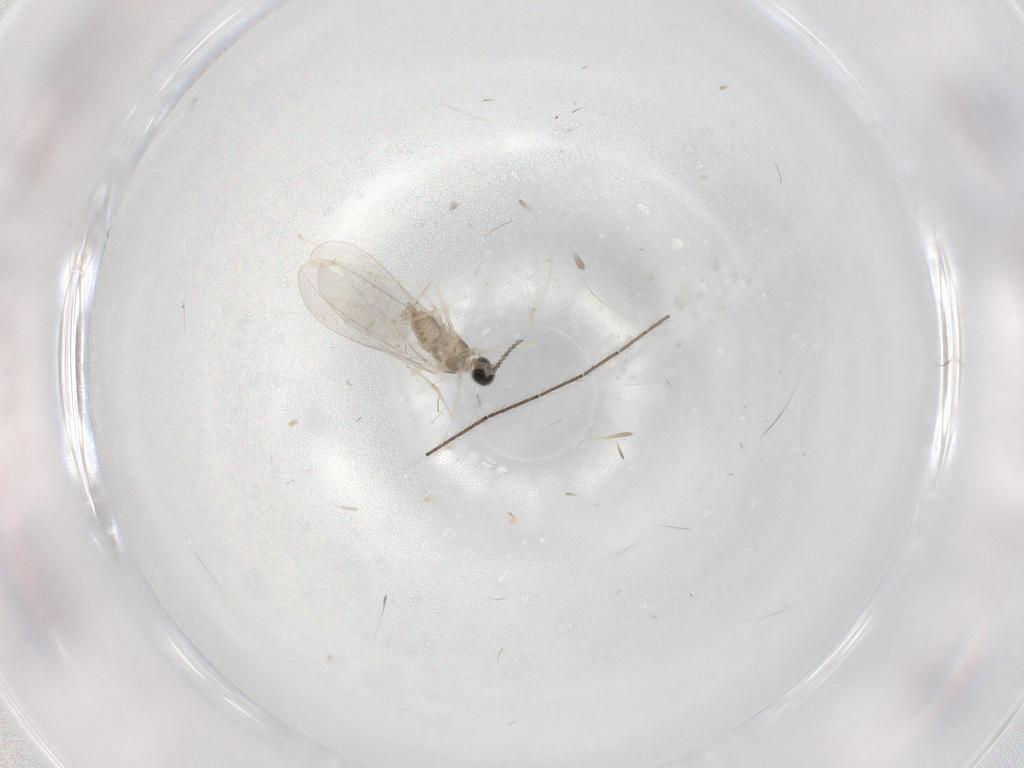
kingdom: Animalia
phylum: Arthropoda
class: Insecta
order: Diptera
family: Cecidomyiidae
